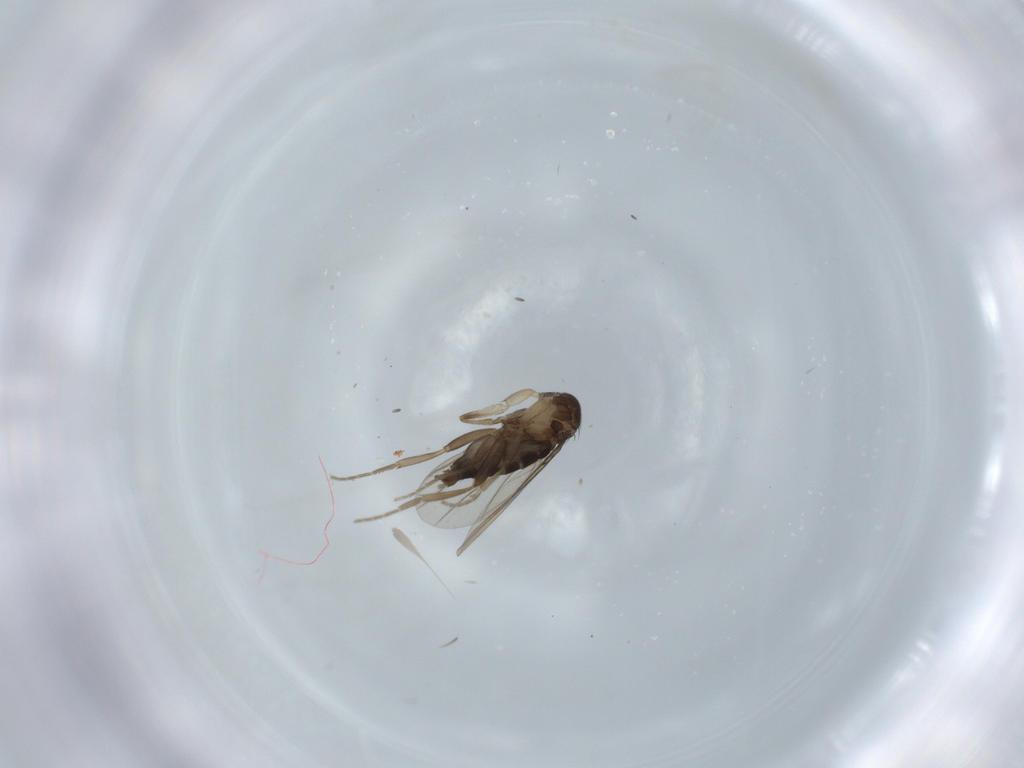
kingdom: Animalia
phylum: Arthropoda
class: Insecta
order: Diptera
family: Phoridae
